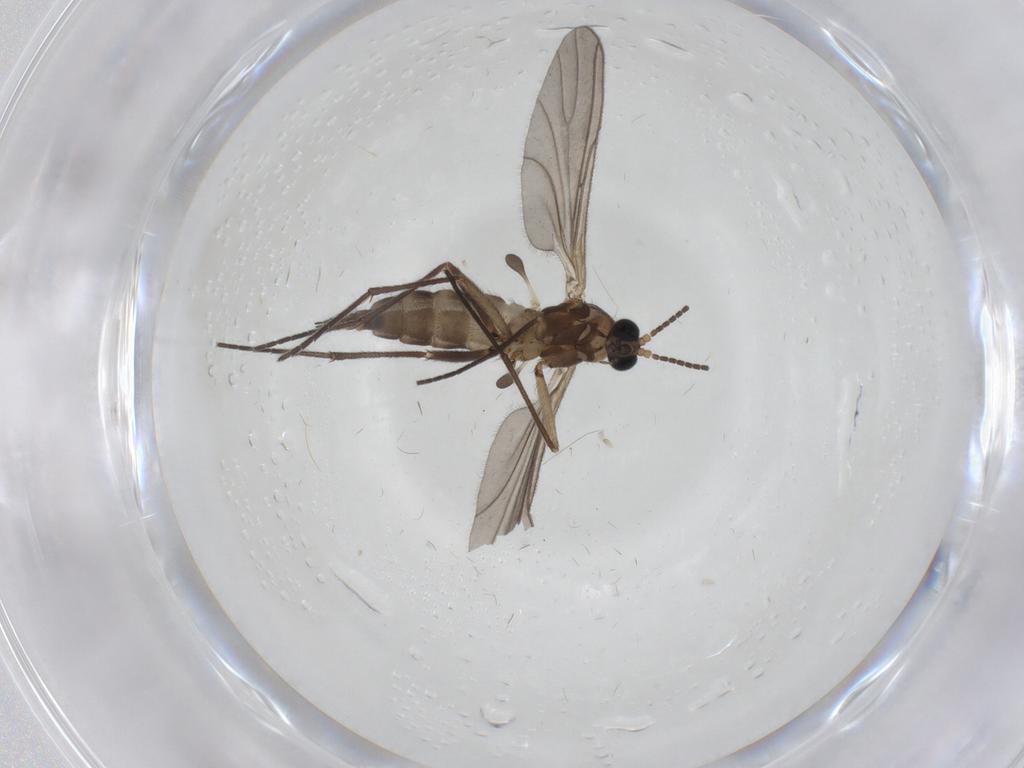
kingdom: Animalia
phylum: Arthropoda
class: Insecta
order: Diptera
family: Sciaridae
